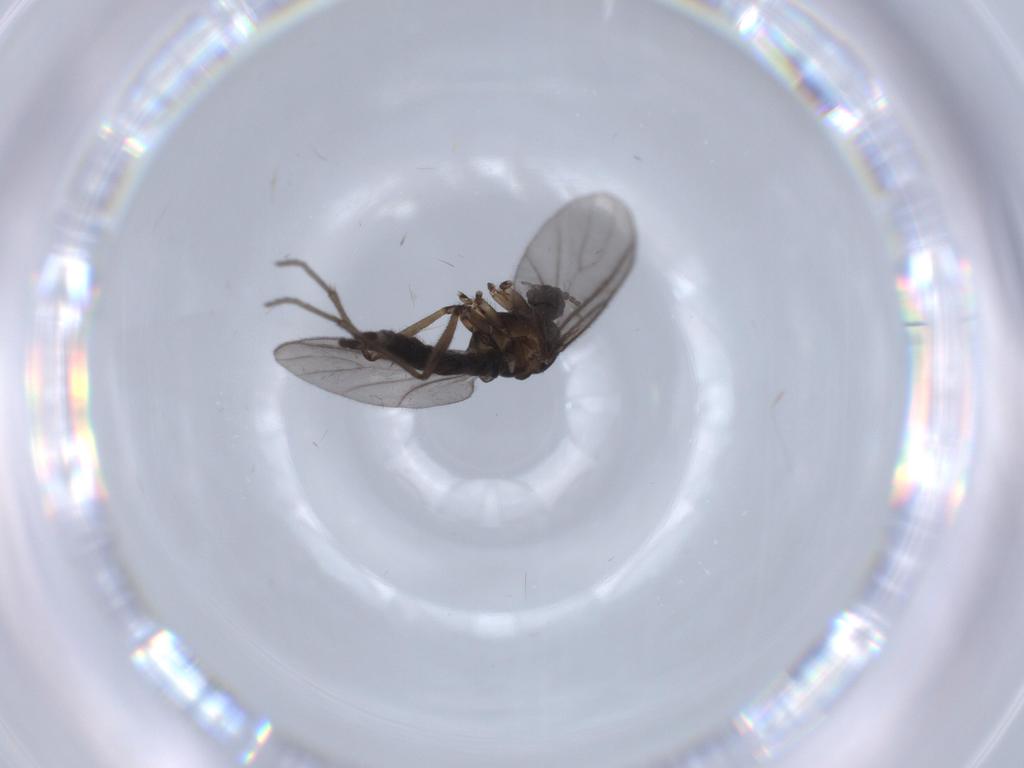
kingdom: Animalia
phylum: Arthropoda
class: Insecta
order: Diptera
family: Sciaridae
